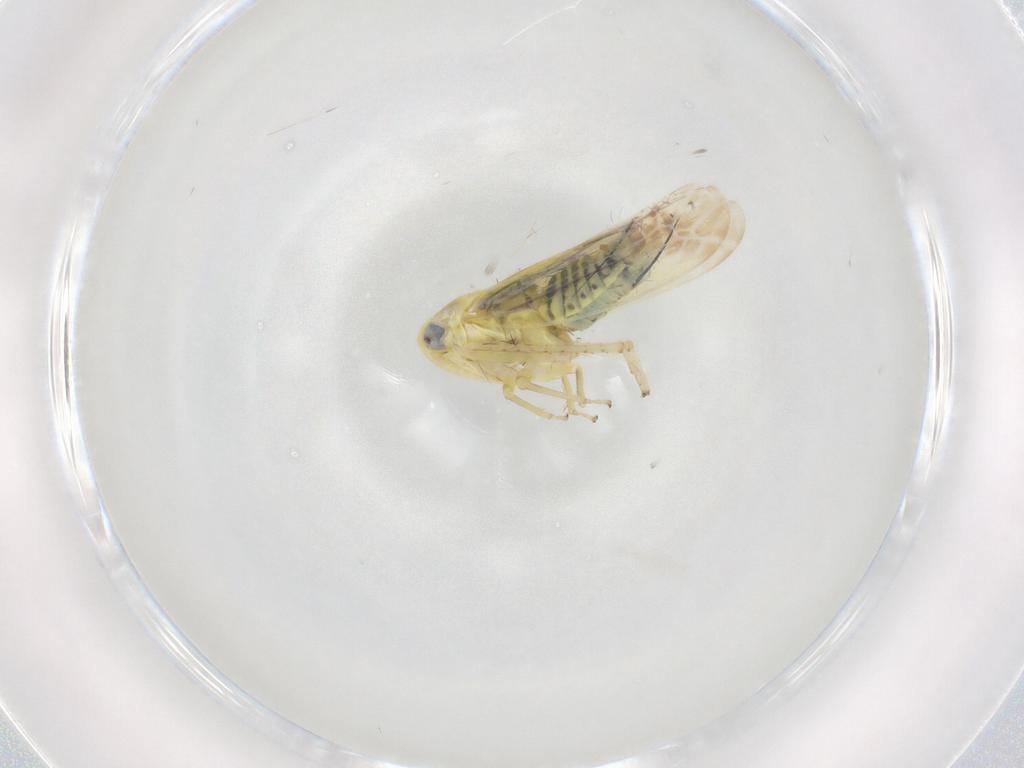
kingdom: Animalia
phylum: Arthropoda
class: Insecta
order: Hemiptera
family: Cicadellidae
